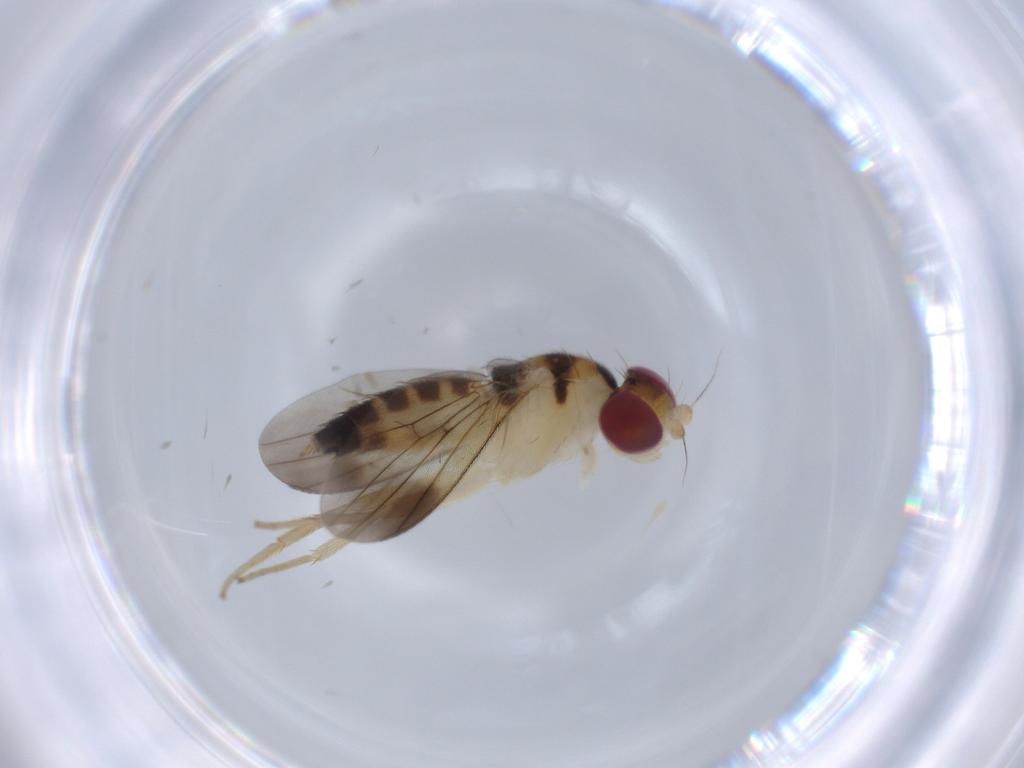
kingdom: Animalia
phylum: Arthropoda
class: Insecta
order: Diptera
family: Clusiidae
